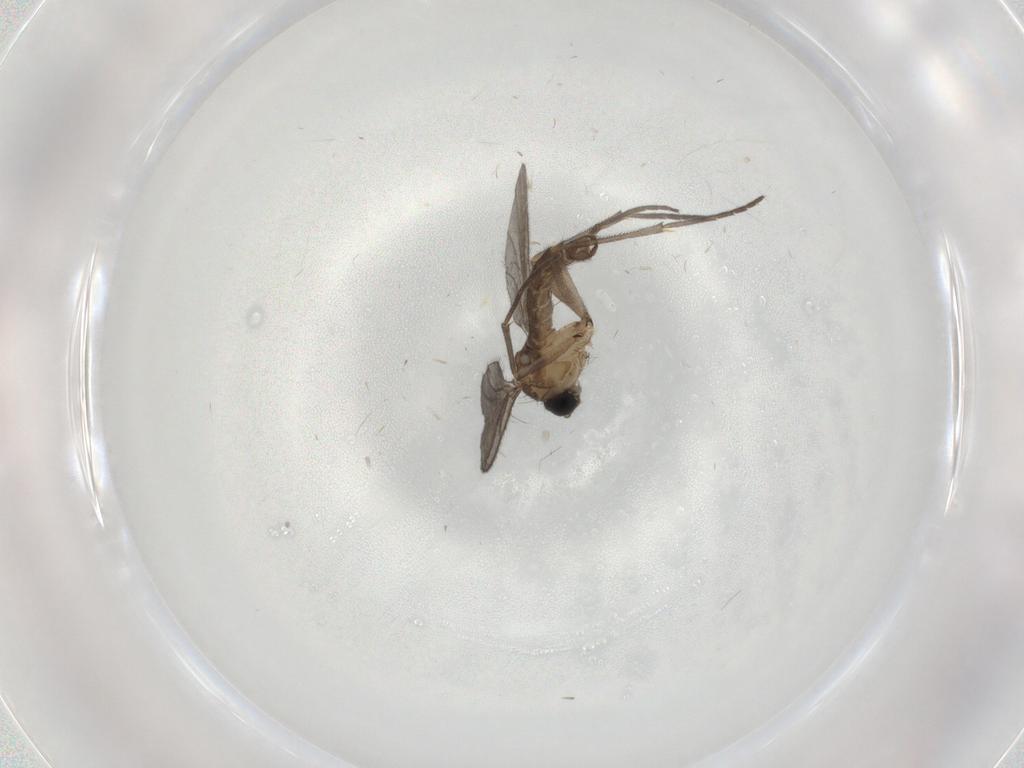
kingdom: Animalia
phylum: Arthropoda
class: Insecta
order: Diptera
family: Sciaridae
